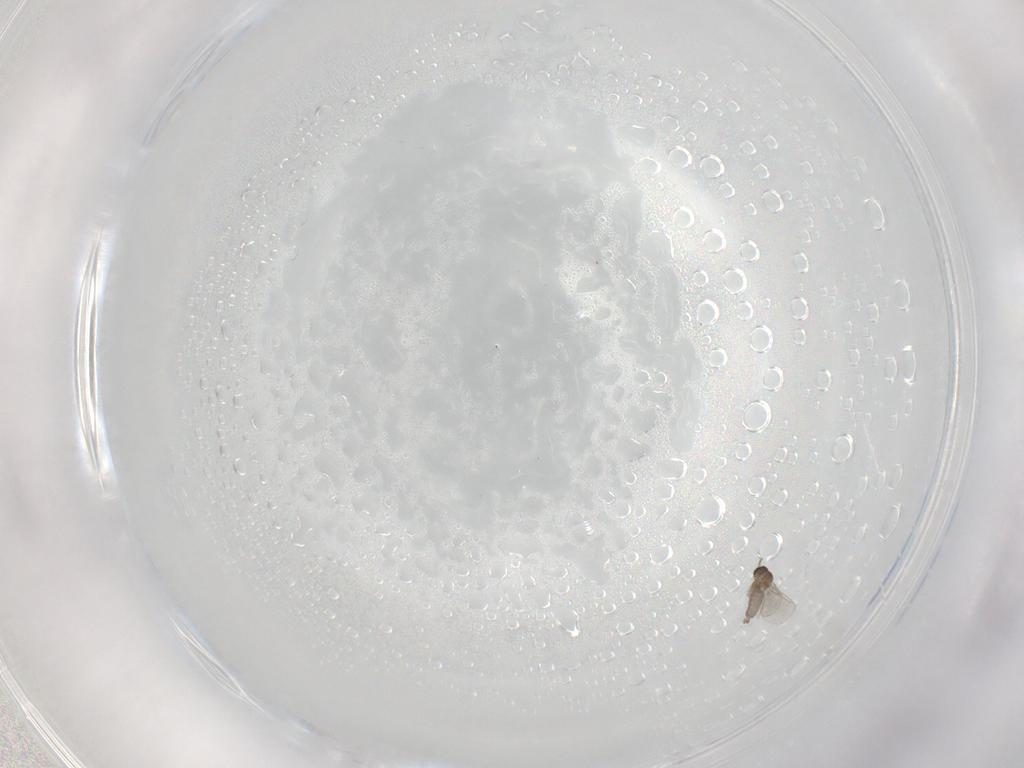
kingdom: Animalia
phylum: Arthropoda
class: Insecta
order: Diptera
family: Cecidomyiidae
